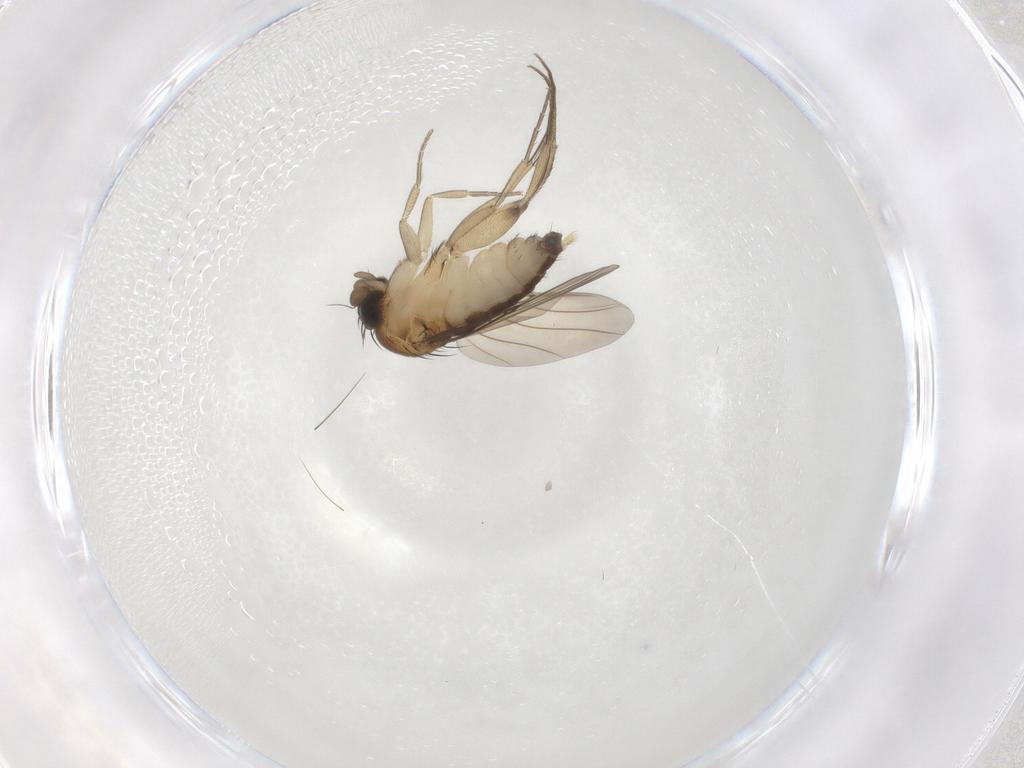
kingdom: Animalia
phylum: Arthropoda
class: Insecta
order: Diptera
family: Phoridae
